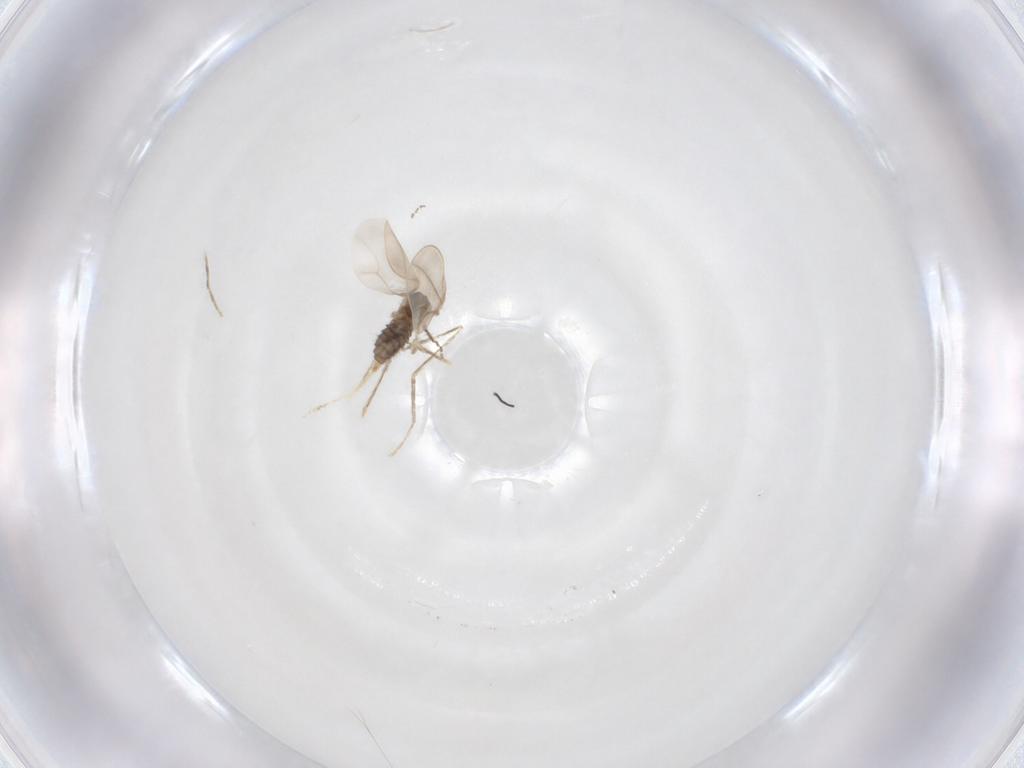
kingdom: Animalia
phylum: Arthropoda
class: Insecta
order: Diptera
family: Cecidomyiidae
